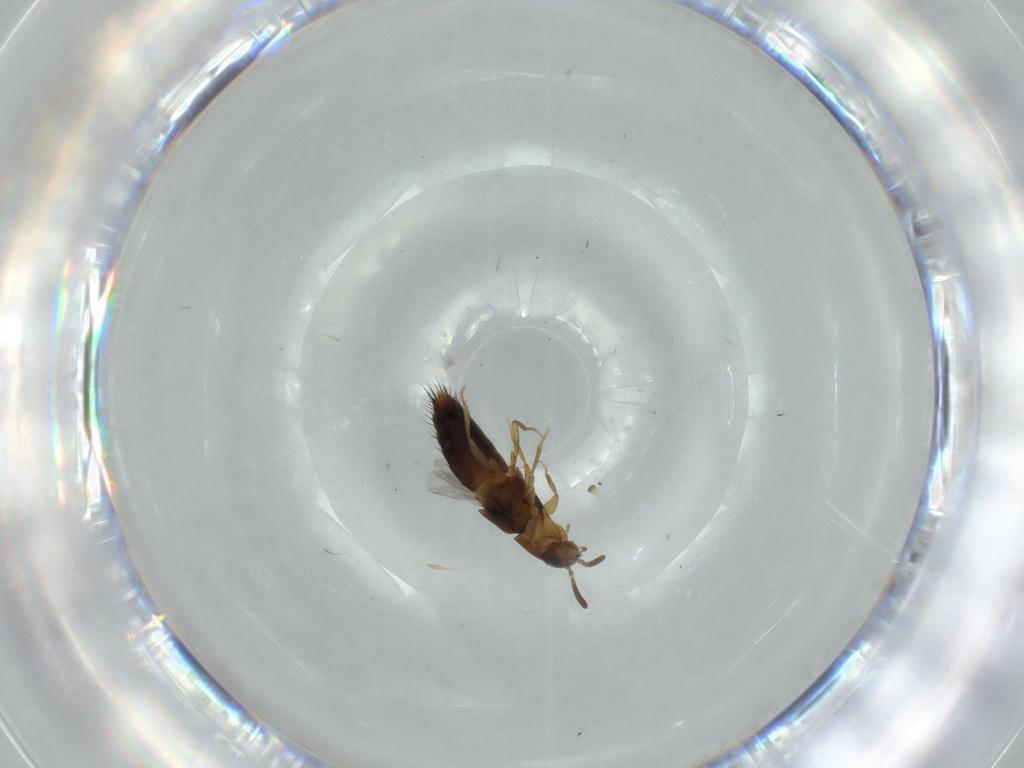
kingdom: Animalia
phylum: Arthropoda
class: Insecta
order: Coleoptera
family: Staphylinidae
